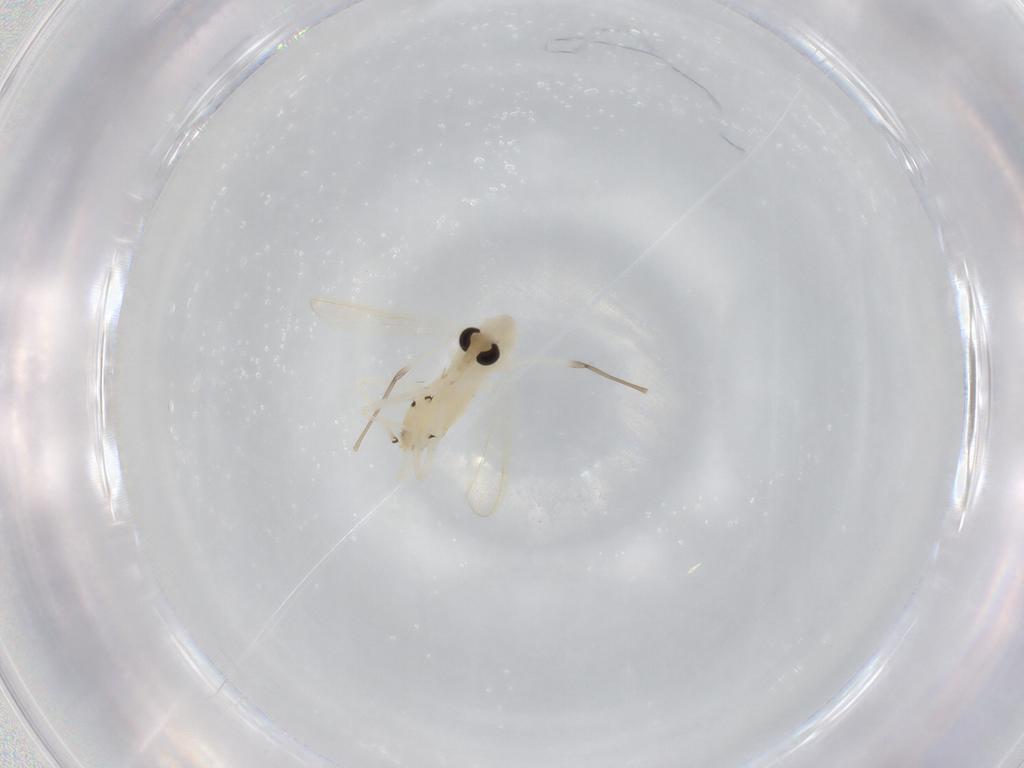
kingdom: Animalia
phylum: Arthropoda
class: Insecta
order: Diptera
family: Chironomidae
